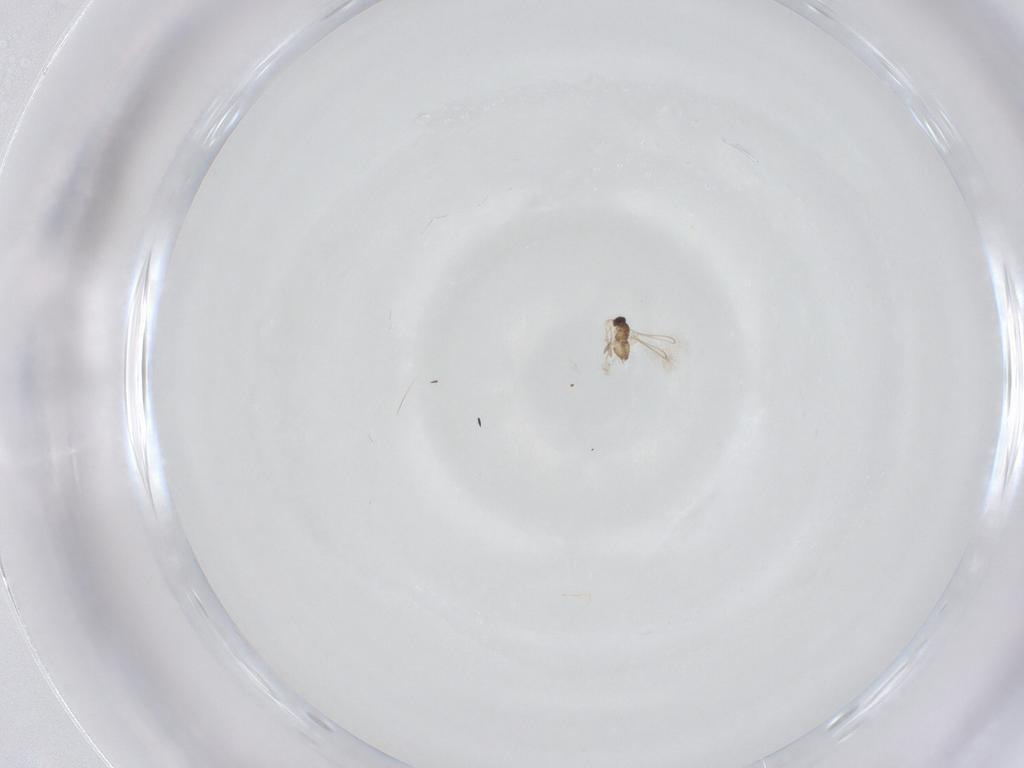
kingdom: Animalia
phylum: Arthropoda
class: Insecta
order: Hymenoptera
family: Mymaridae
